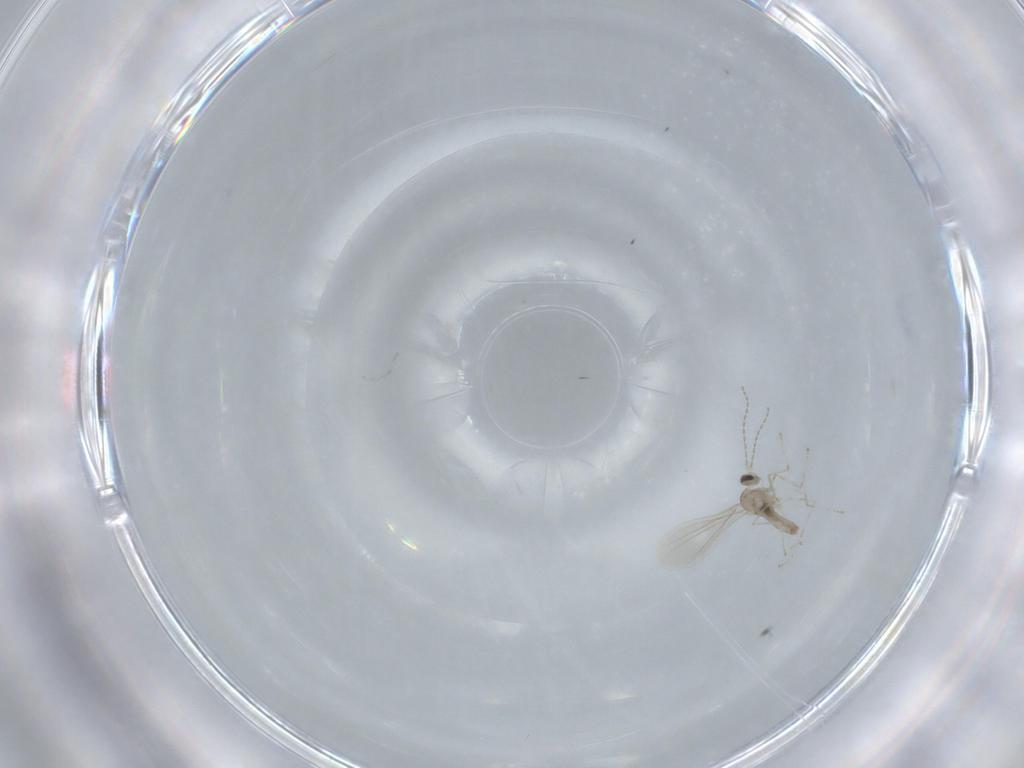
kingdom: Animalia
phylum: Arthropoda
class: Insecta
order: Diptera
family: Cecidomyiidae
